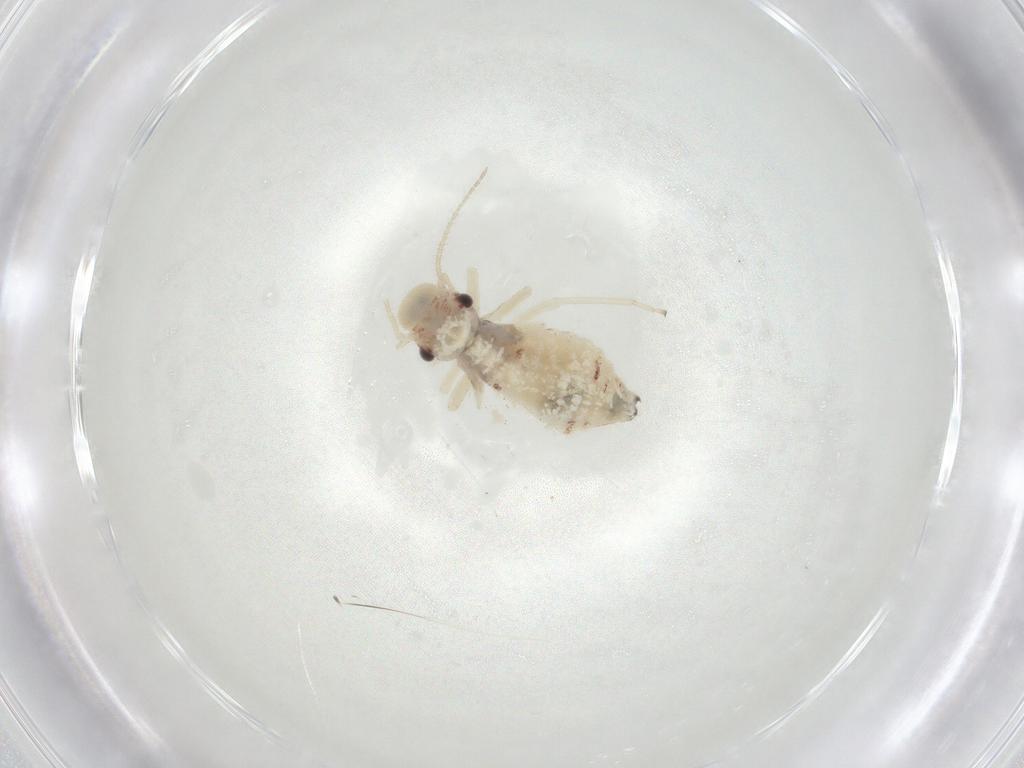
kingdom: Animalia
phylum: Arthropoda
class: Insecta
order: Psocodea
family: Amphipsocidae
